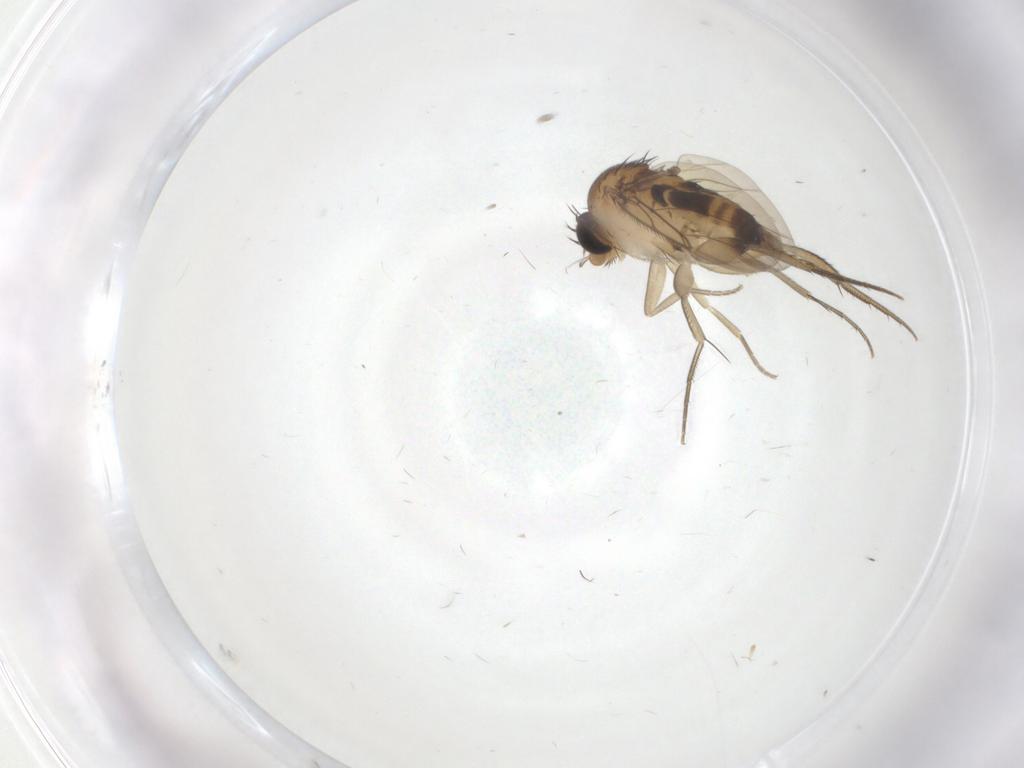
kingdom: Animalia
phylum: Arthropoda
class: Insecta
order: Diptera
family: Phoridae
